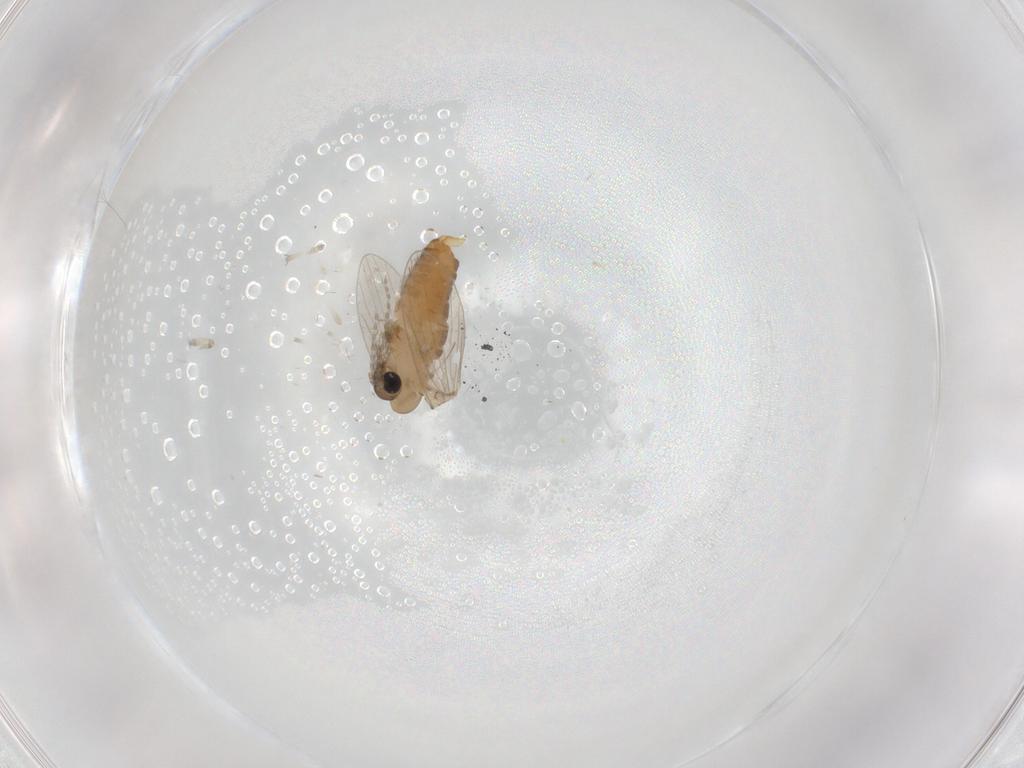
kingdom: Animalia
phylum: Arthropoda
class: Insecta
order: Diptera
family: Psychodidae
